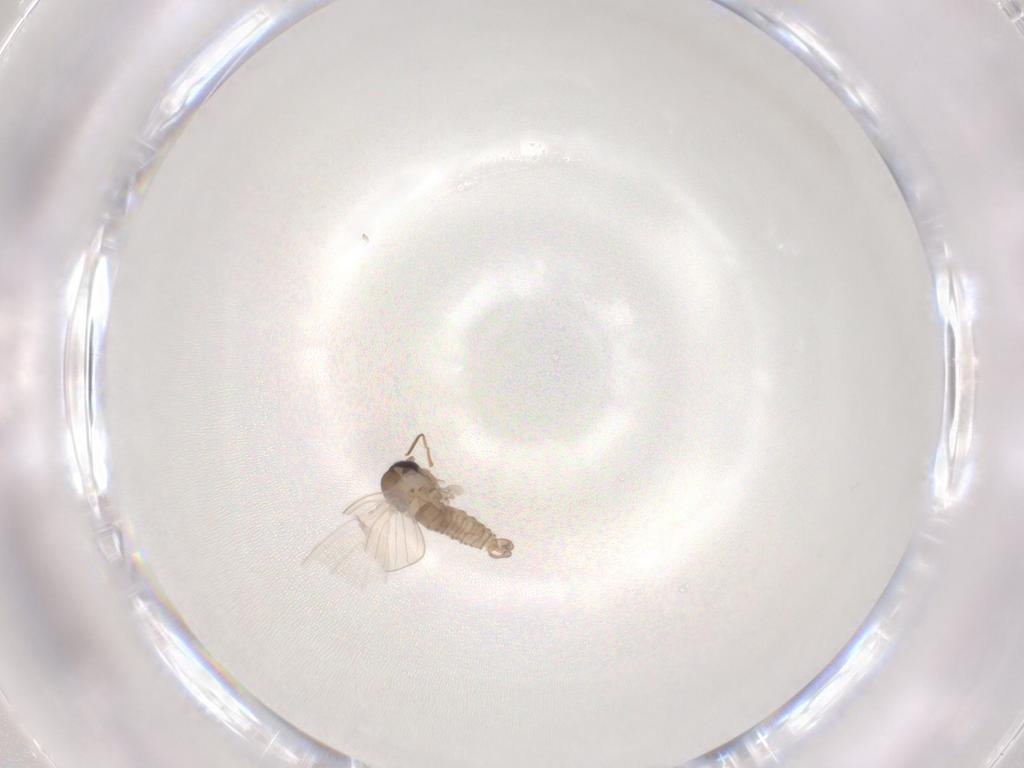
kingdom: Animalia
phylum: Arthropoda
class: Insecta
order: Diptera
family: Psychodidae
